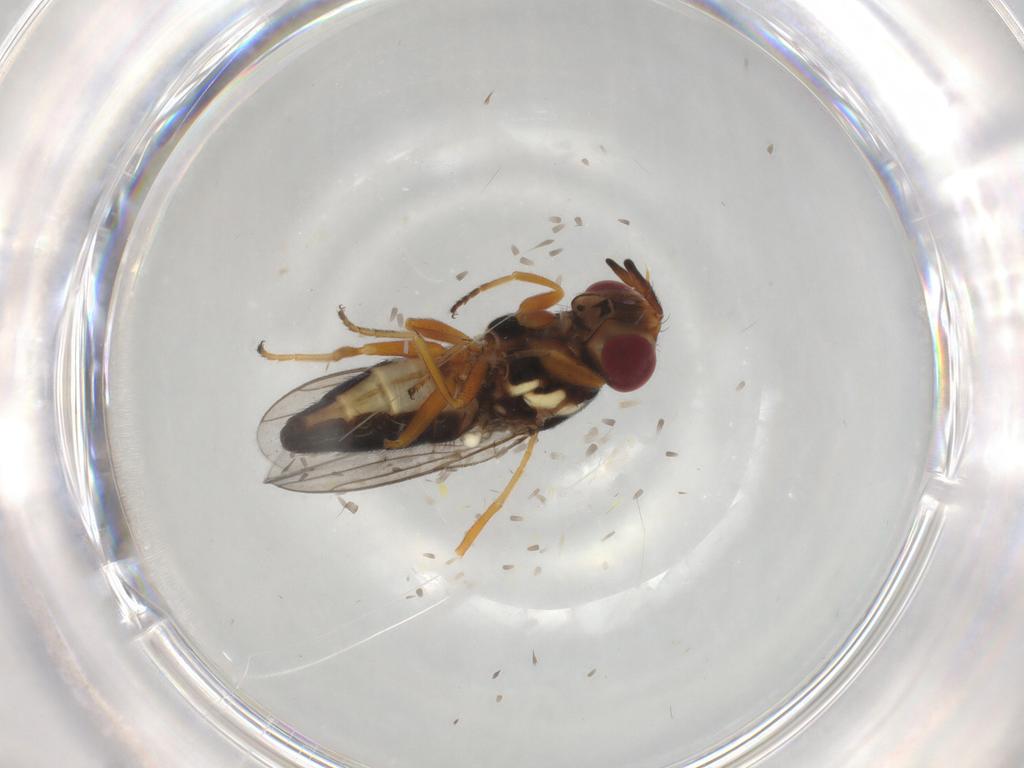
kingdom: Animalia
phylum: Arthropoda
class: Insecta
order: Diptera
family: Chloropidae
